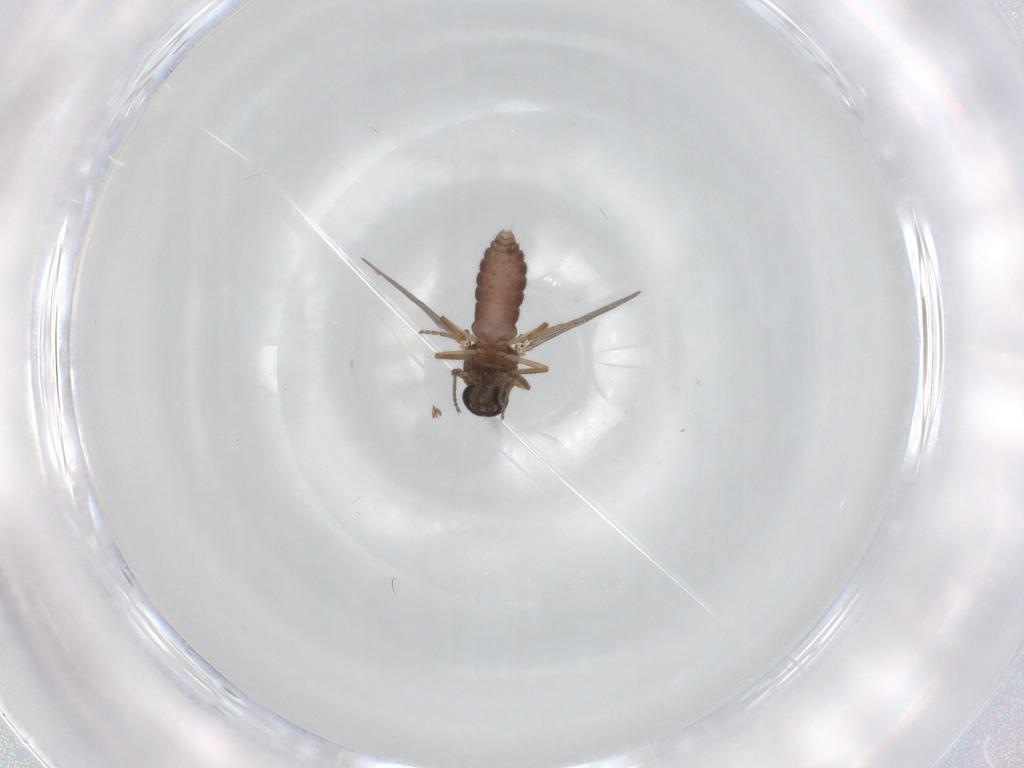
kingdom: Animalia
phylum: Arthropoda
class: Insecta
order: Diptera
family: Ceratopogonidae
